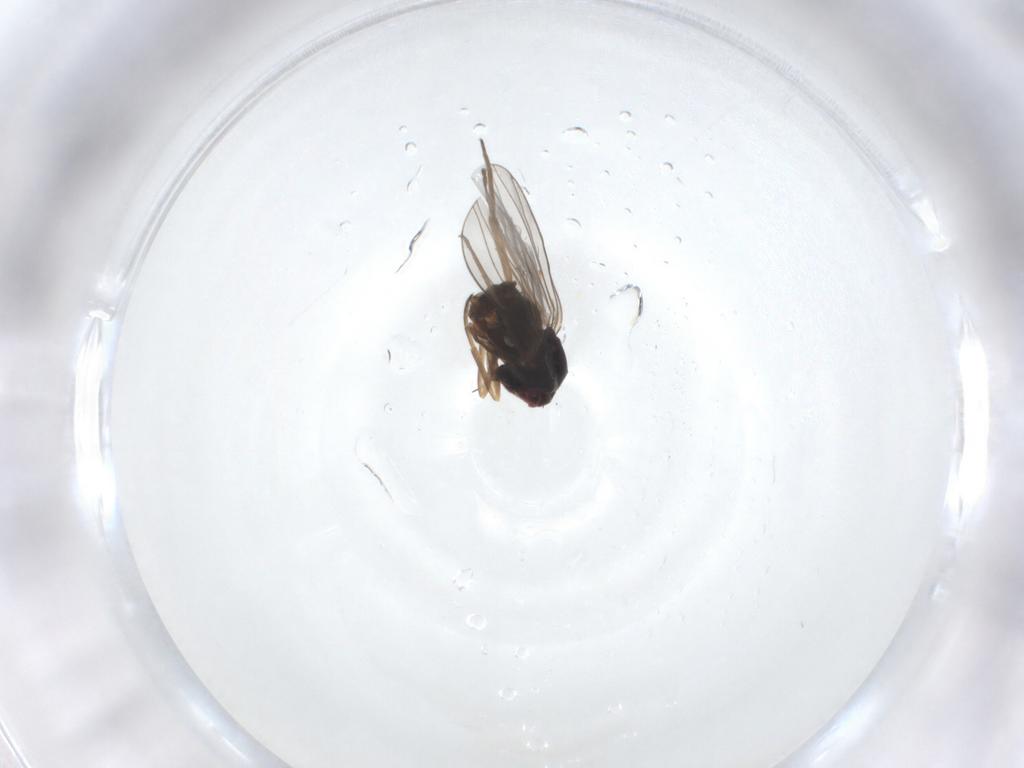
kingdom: Animalia
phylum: Arthropoda
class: Insecta
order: Diptera
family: Dolichopodidae
